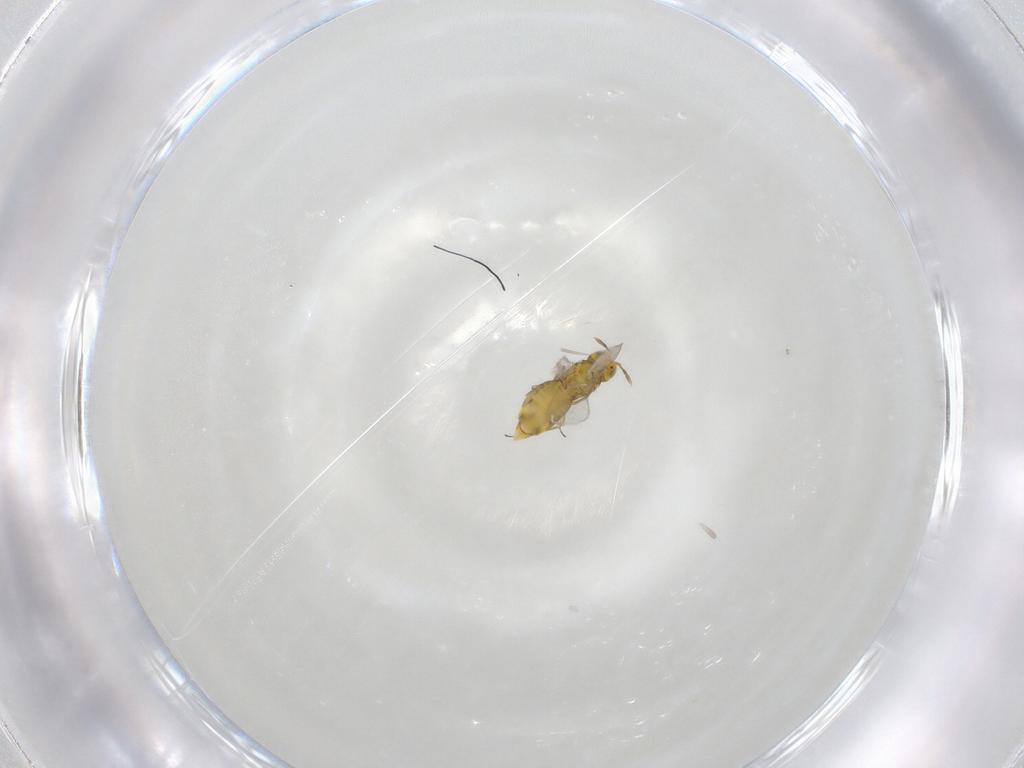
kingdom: Animalia
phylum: Arthropoda
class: Insecta
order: Hymenoptera
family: Aphelinidae
